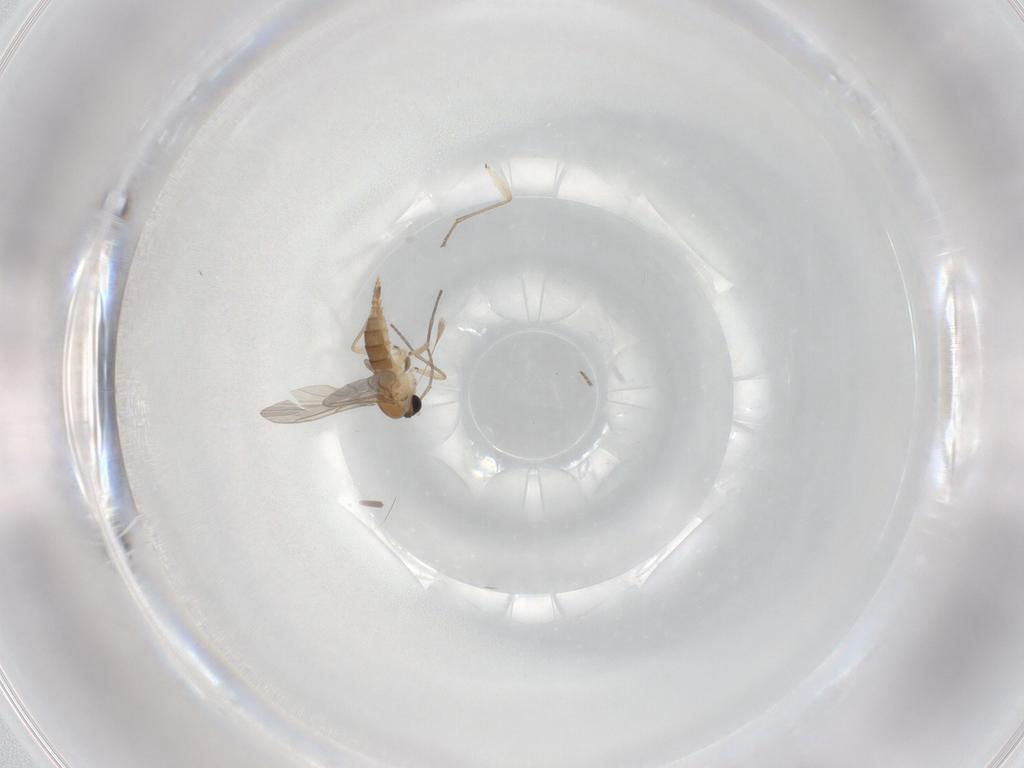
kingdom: Animalia
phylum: Arthropoda
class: Insecta
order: Diptera
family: Sciaridae
